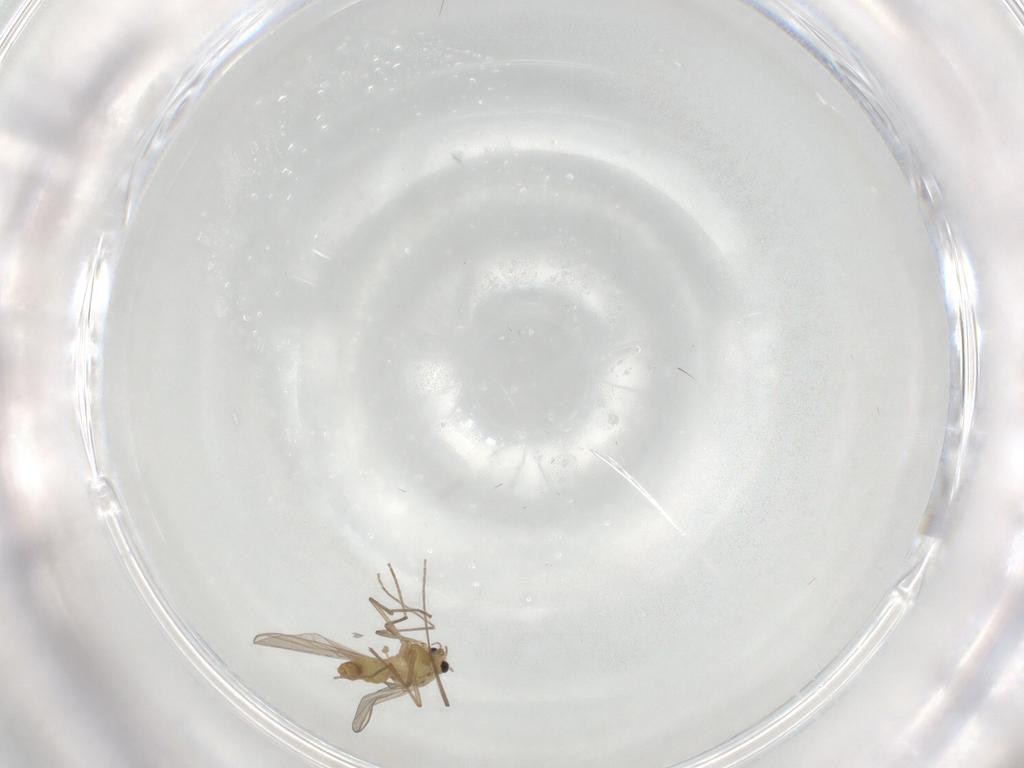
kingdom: Animalia
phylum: Arthropoda
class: Insecta
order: Diptera
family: Sciaridae
